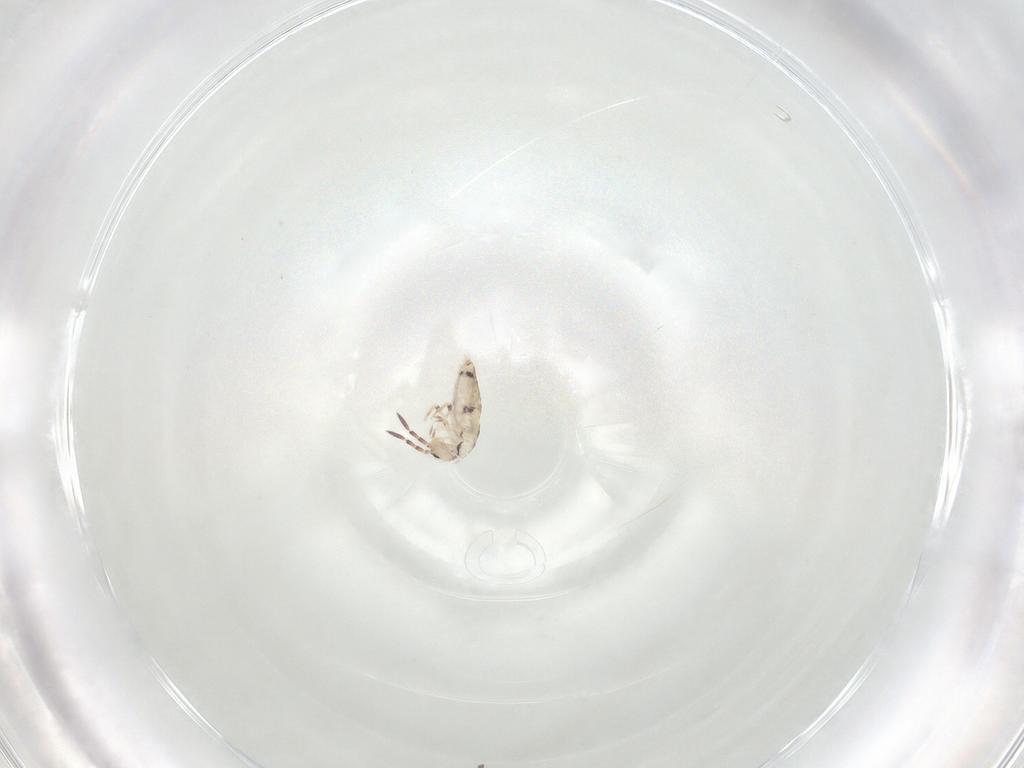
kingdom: Animalia
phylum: Arthropoda
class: Collembola
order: Entomobryomorpha
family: Entomobryidae
